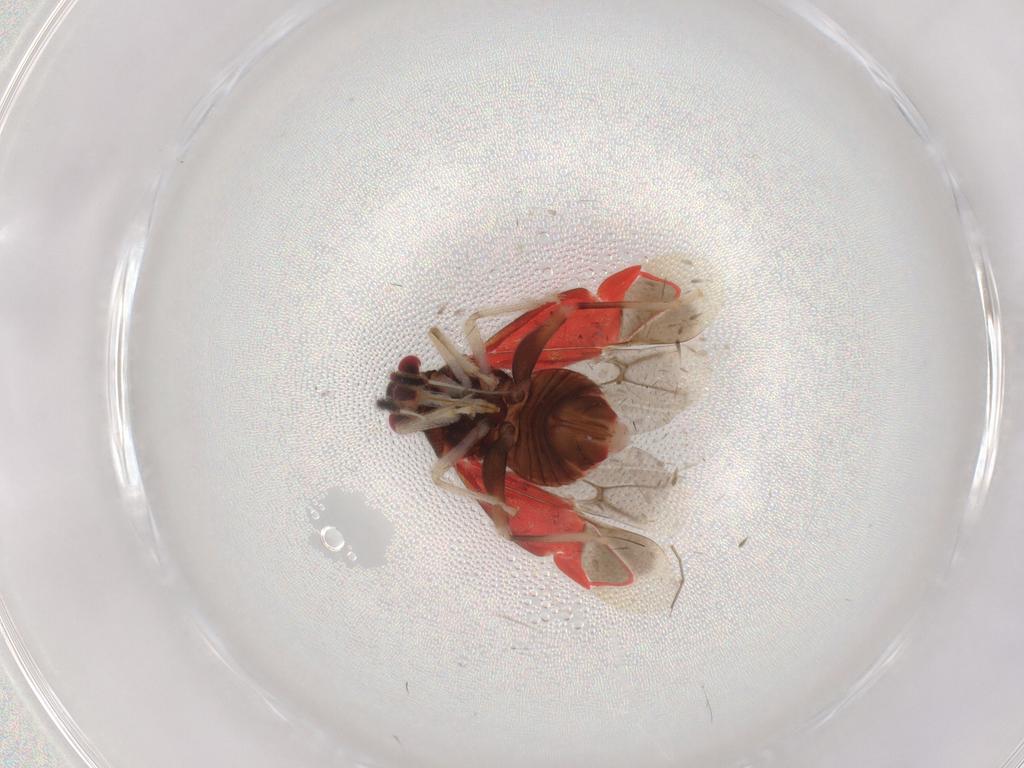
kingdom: Animalia
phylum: Arthropoda
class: Insecta
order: Hemiptera
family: Miridae
